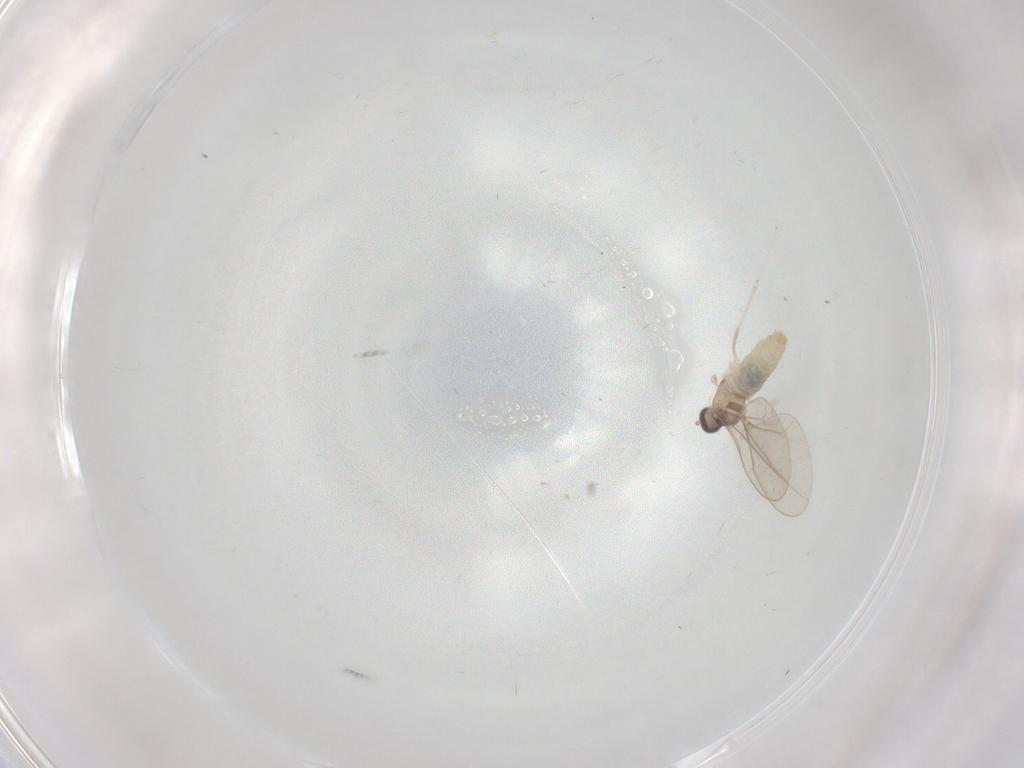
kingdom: Animalia
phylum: Arthropoda
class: Insecta
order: Diptera
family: Cecidomyiidae
